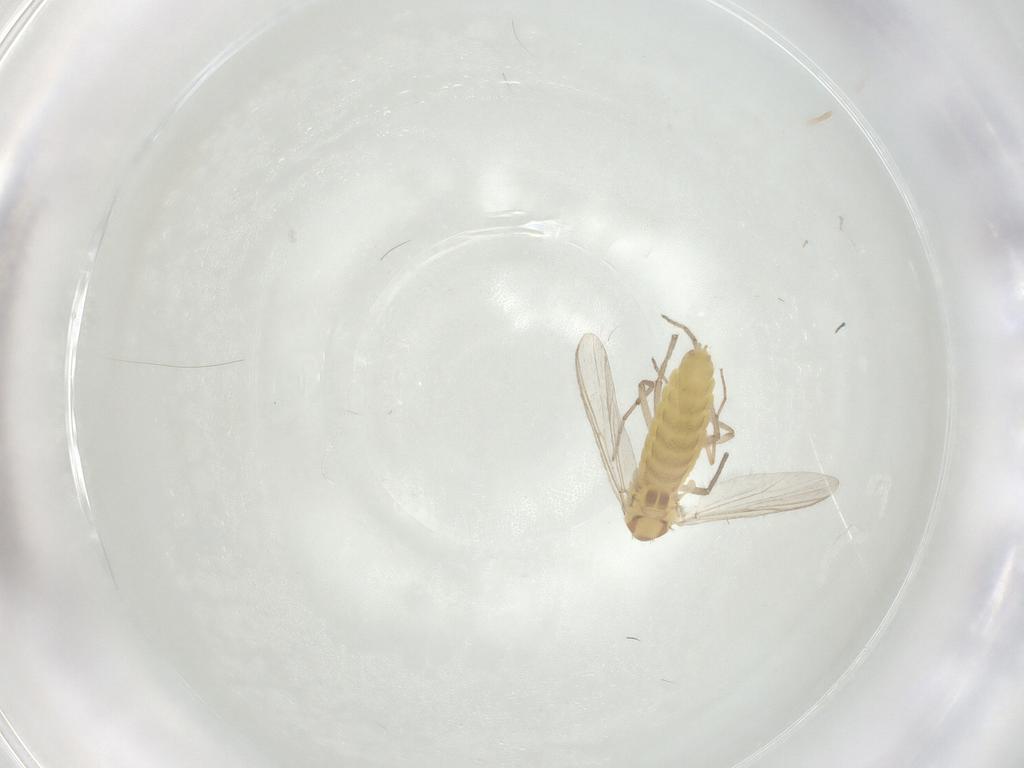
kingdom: Animalia
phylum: Arthropoda
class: Insecta
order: Diptera
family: Chironomidae
